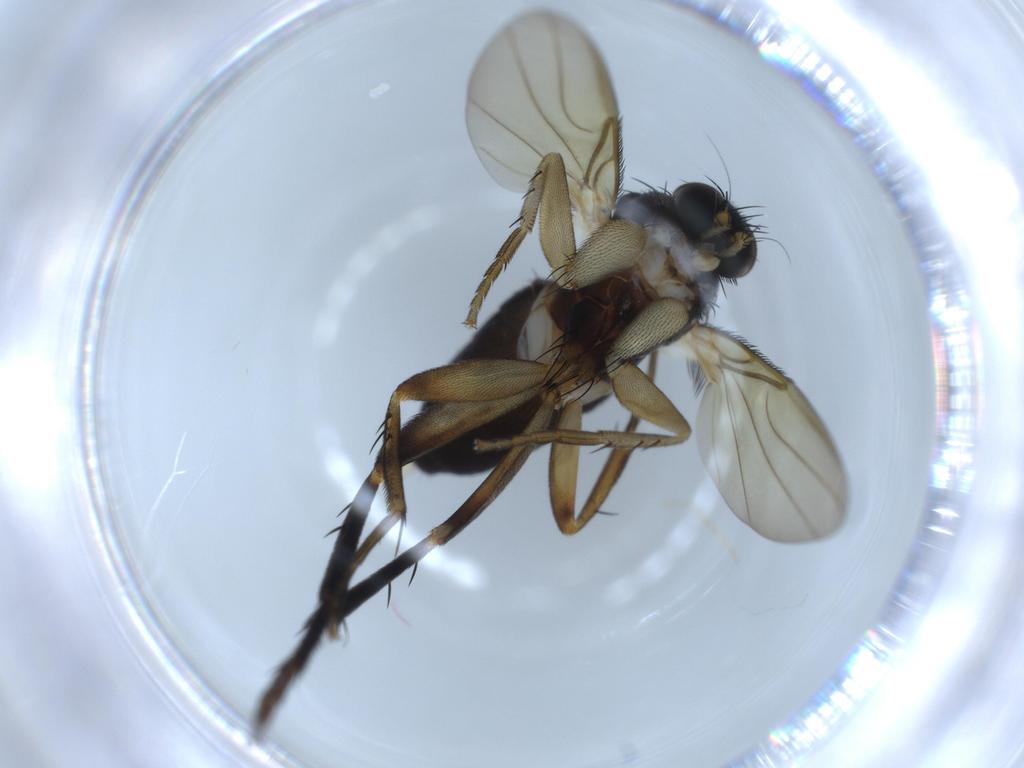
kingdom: Animalia
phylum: Arthropoda
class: Insecta
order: Diptera
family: Phoridae
